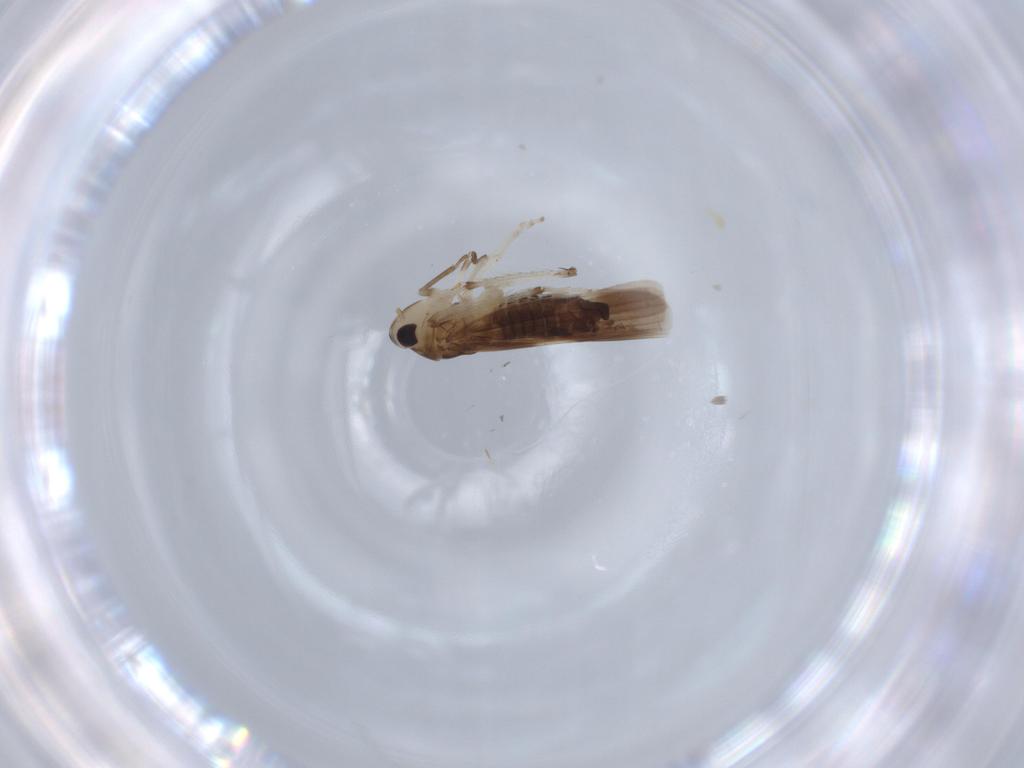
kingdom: Animalia
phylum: Arthropoda
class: Insecta
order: Hemiptera
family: Cicadellidae
